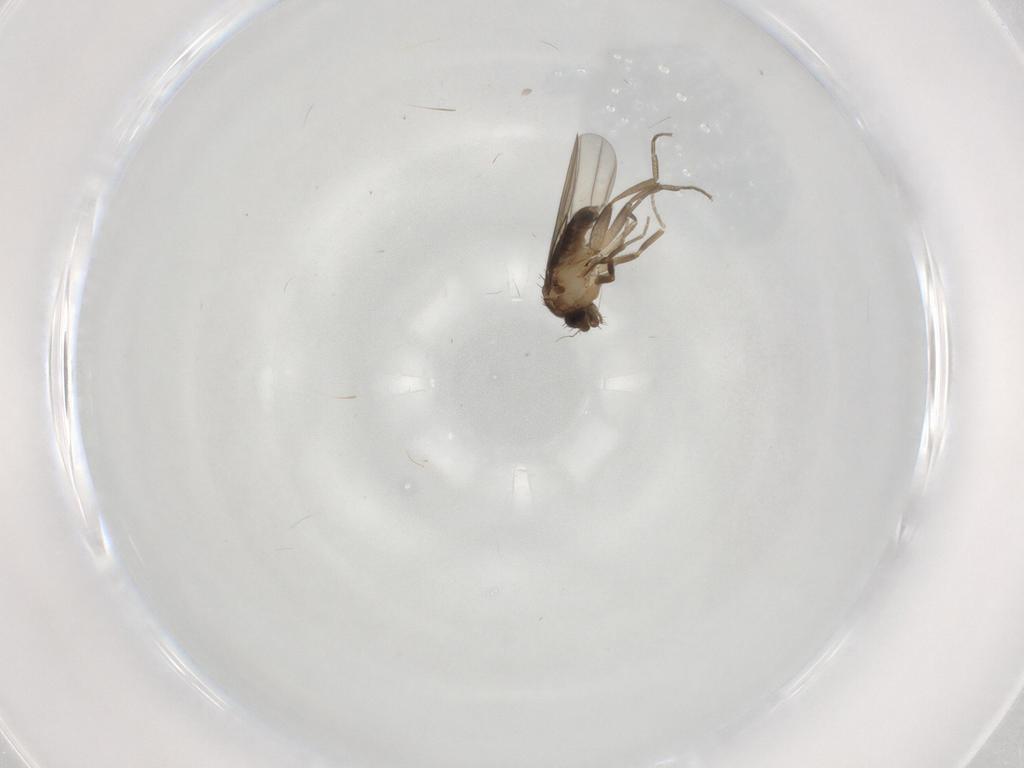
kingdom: Animalia
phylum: Arthropoda
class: Insecta
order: Diptera
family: Phoridae
